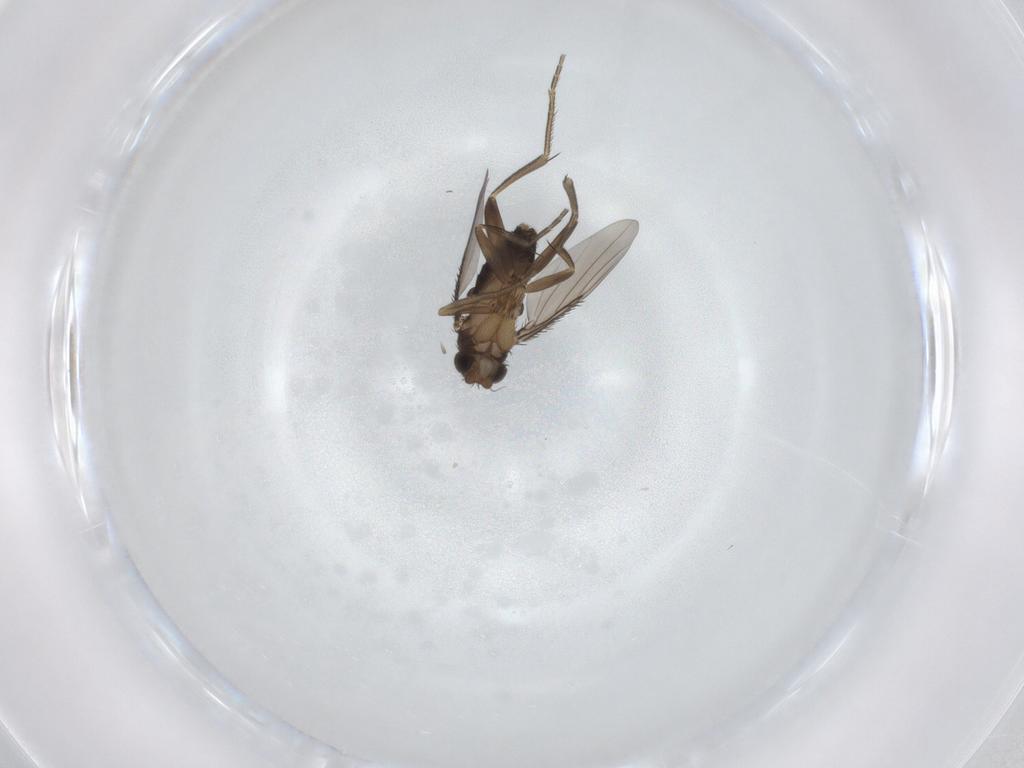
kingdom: Animalia
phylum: Arthropoda
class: Insecta
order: Diptera
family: Phoridae
